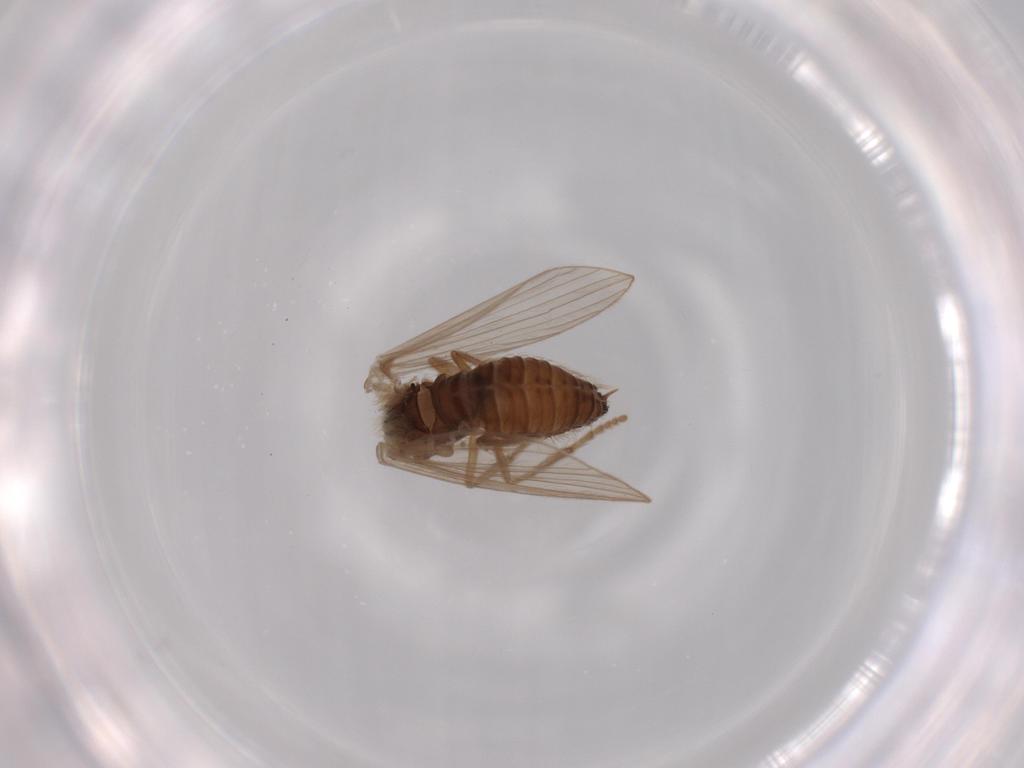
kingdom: Animalia
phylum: Arthropoda
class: Insecta
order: Diptera
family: Psychodidae
